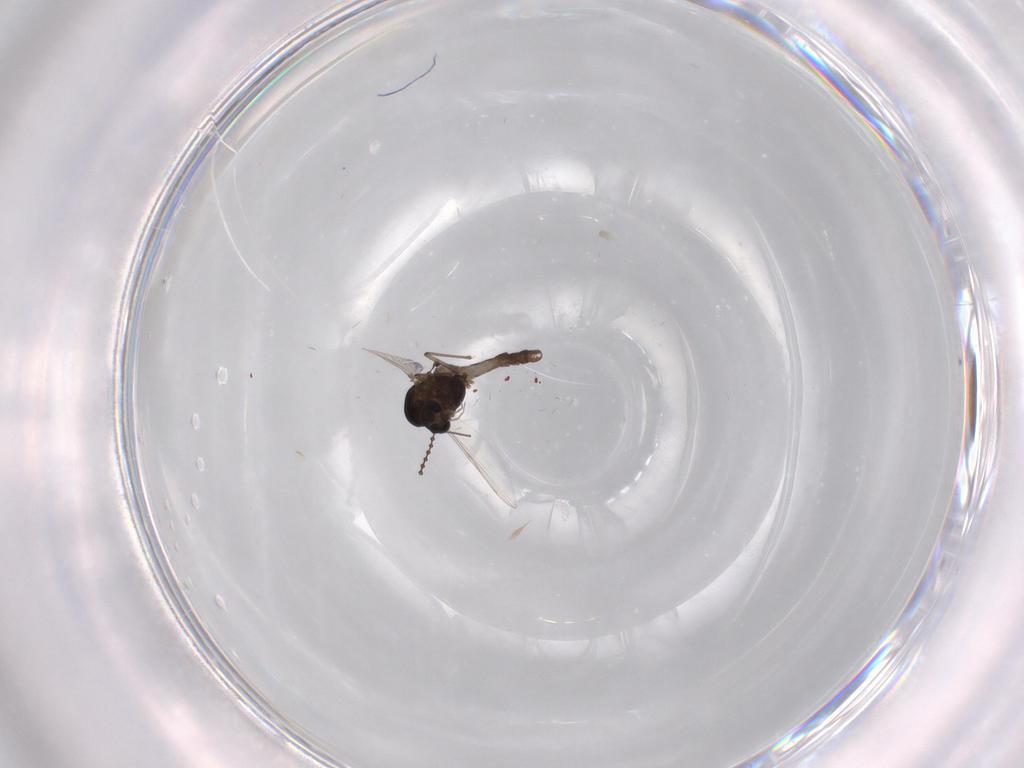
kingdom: Animalia
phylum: Arthropoda
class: Insecta
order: Diptera
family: Chironomidae
